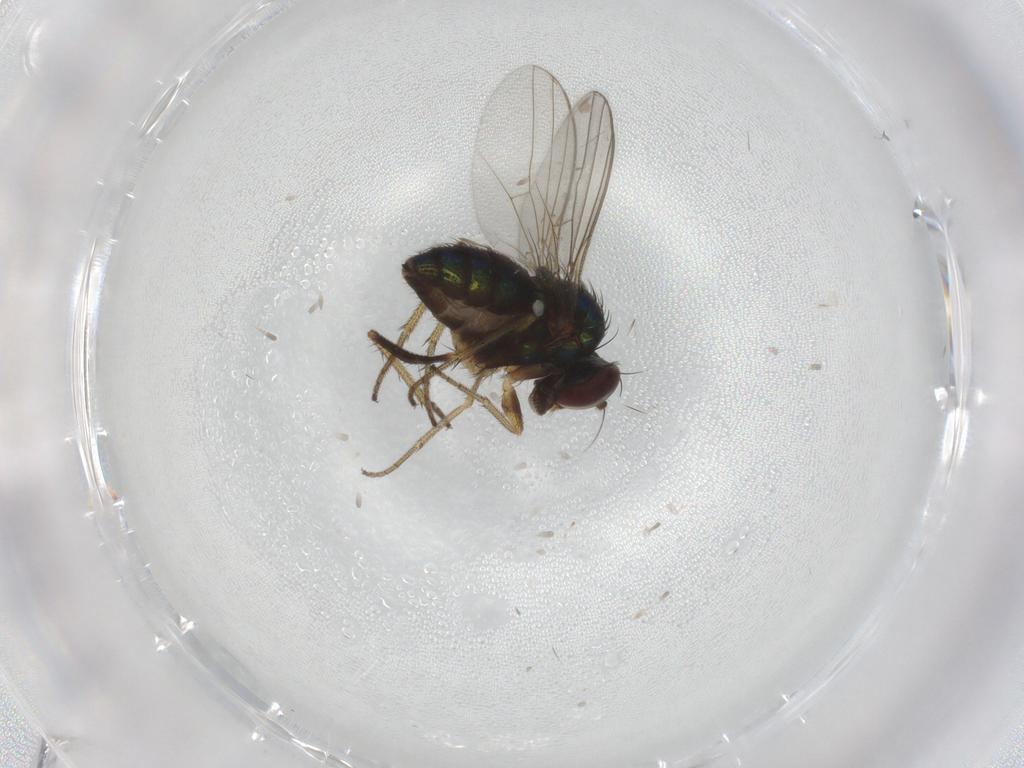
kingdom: Animalia
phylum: Arthropoda
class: Insecta
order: Diptera
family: Dolichopodidae
